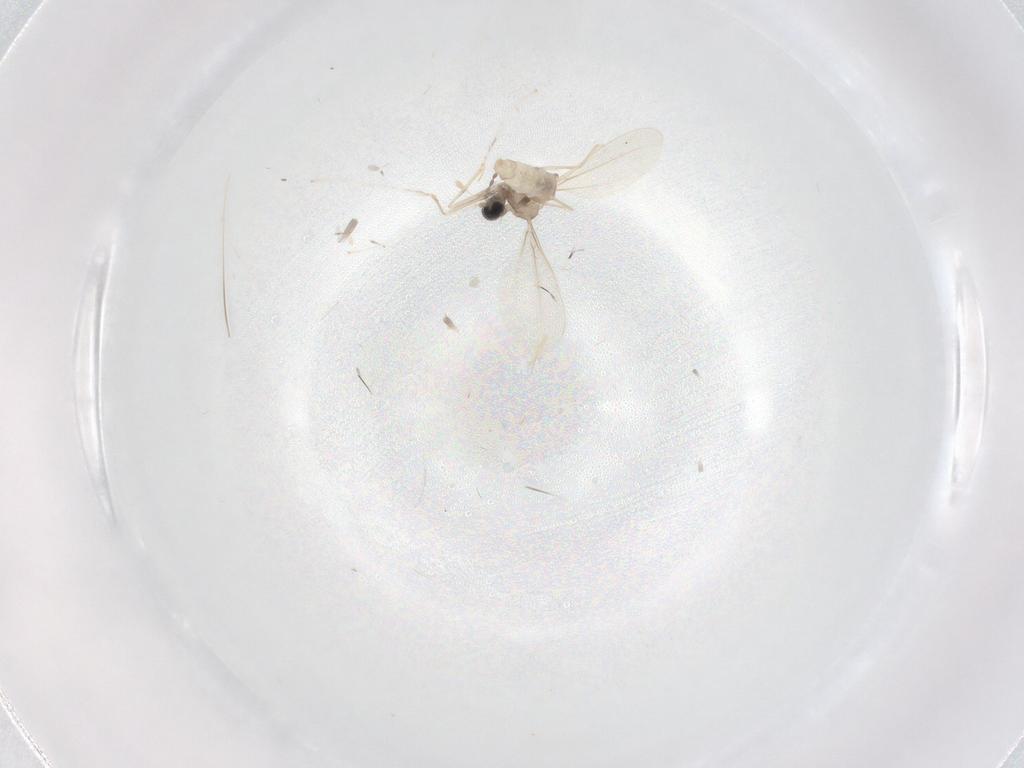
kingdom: Animalia
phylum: Arthropoda
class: Insecta
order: Diptera
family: Cecidomyiidae
